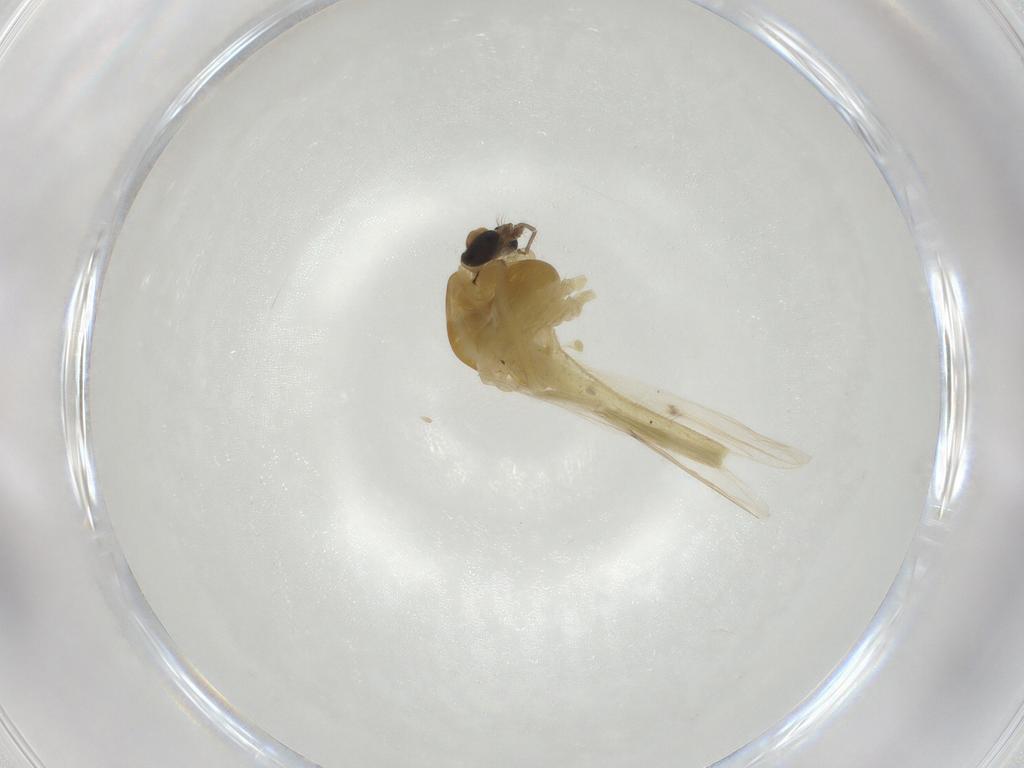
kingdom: Animalia
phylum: Arthropoda
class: Insecta
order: Diptera
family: Chironomidae
